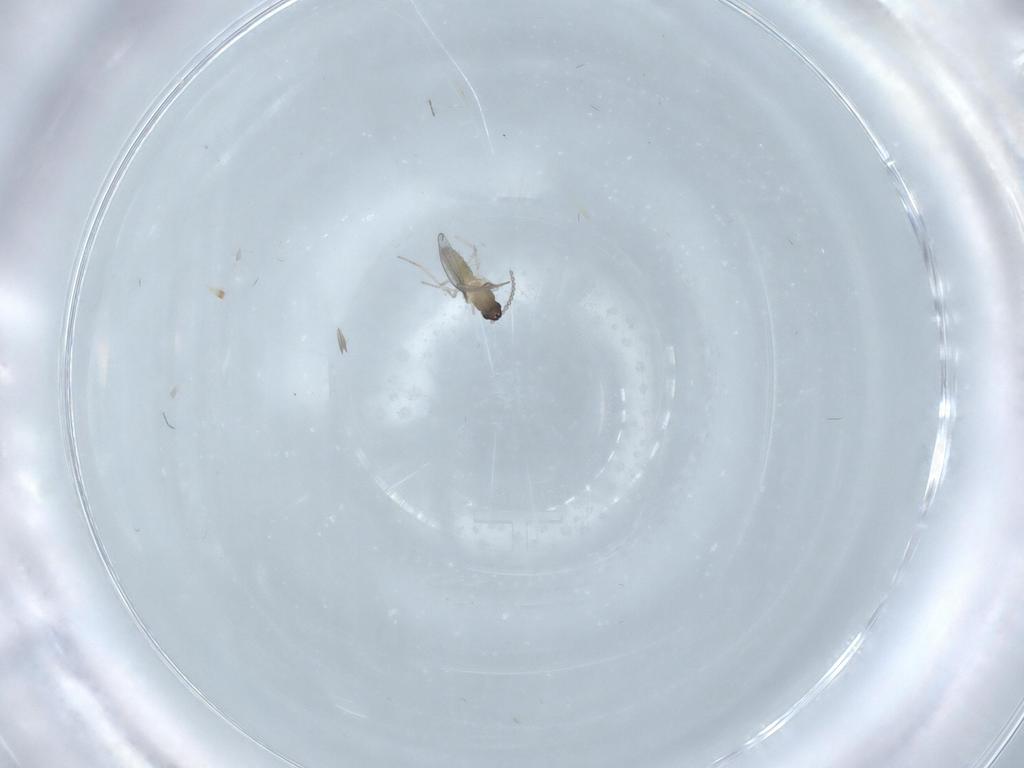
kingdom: Animalia
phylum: Arthropoda
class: Insecta
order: Diptera
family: Cecidomyiidae
